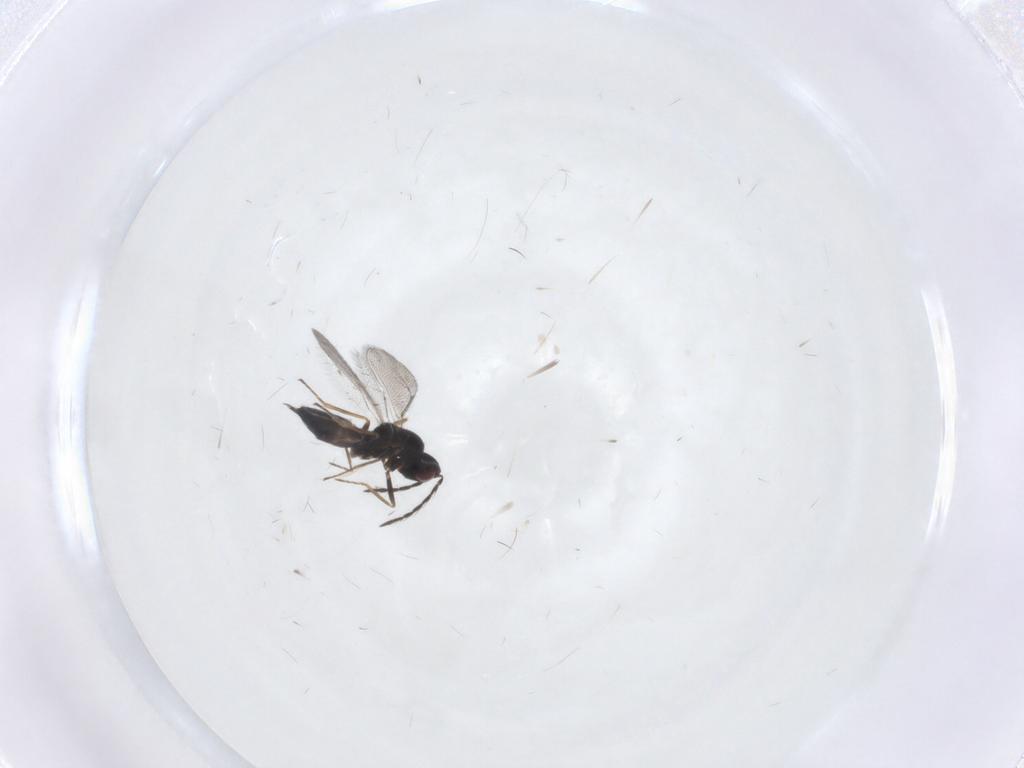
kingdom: Animalia
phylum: Arthropoda
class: Insecta
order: Hymenoptera
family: Eulophidae
